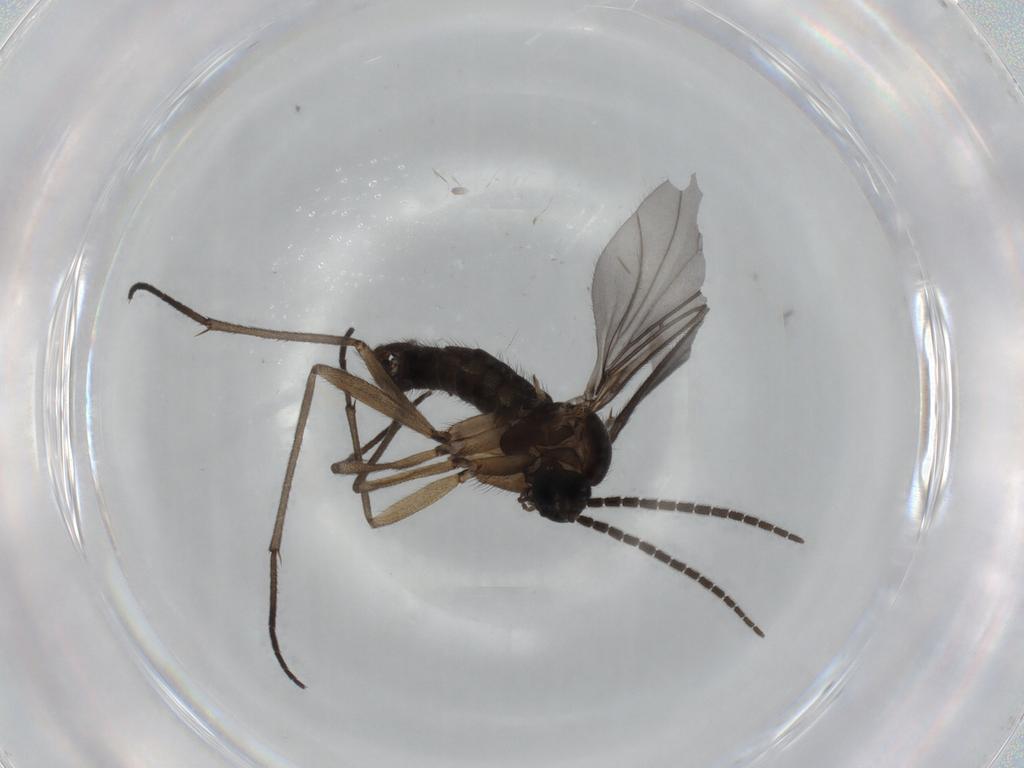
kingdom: Animalia
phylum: Arthropoda
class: Insecta
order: Diptera
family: Sciaridae
